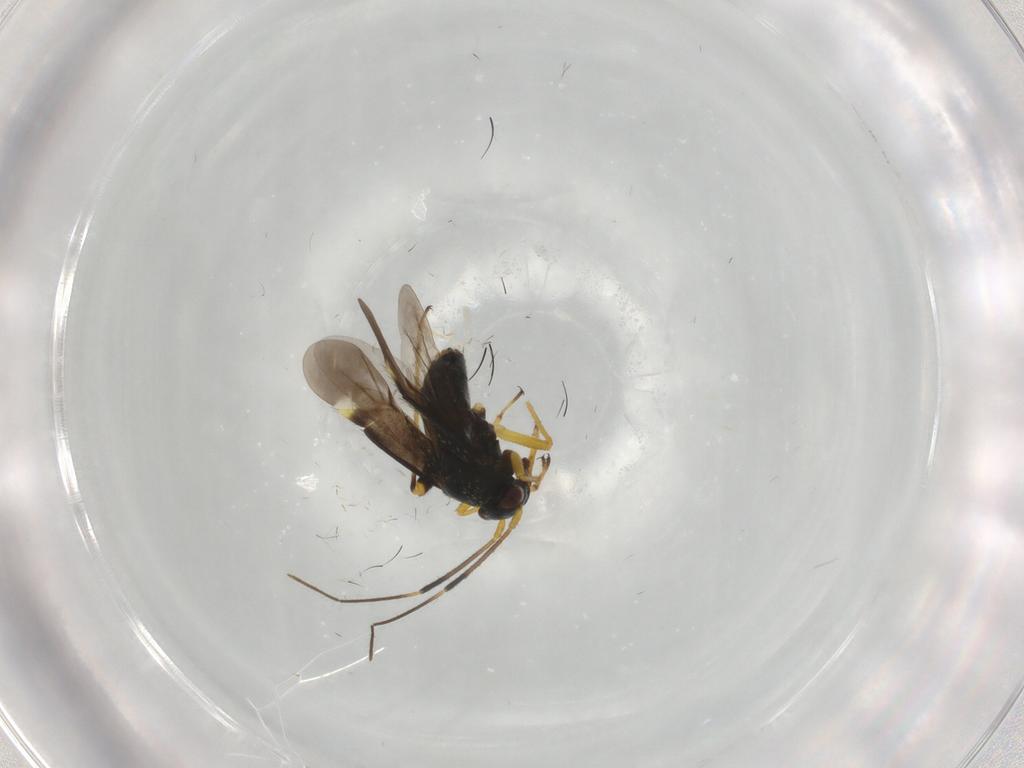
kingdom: Animalia
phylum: Arthropoda
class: Insecta
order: Hemiptera
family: Miridae
